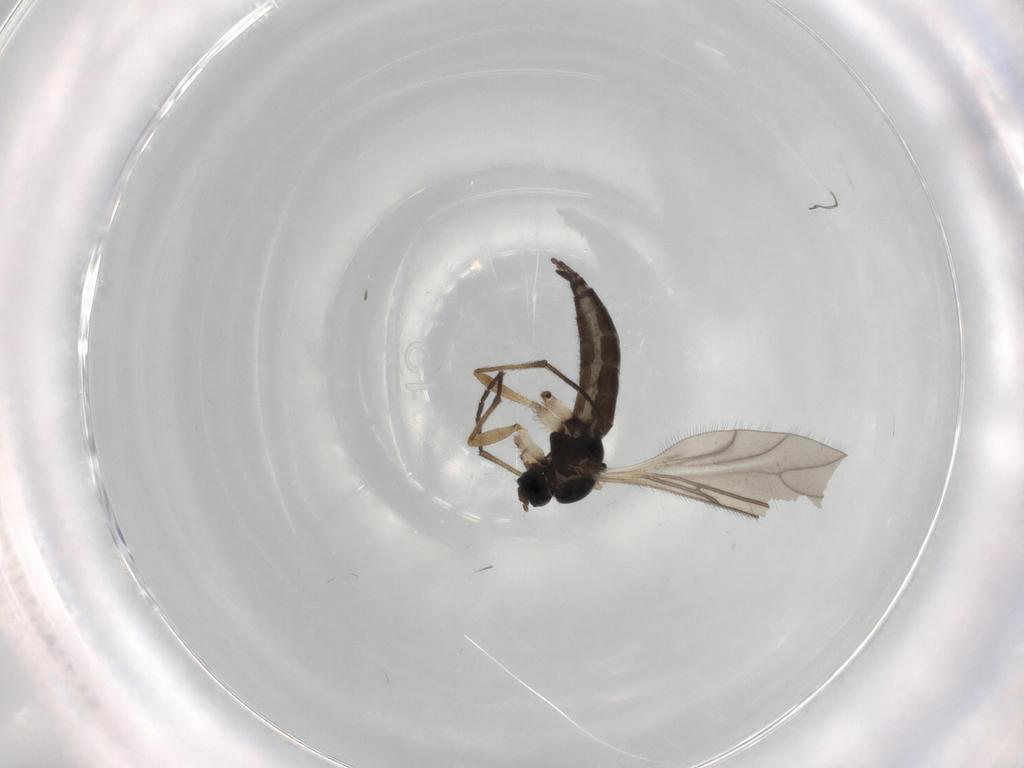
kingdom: Animalia
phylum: Arthropoda
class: Insecta
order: Diptera
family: Sciaridae
